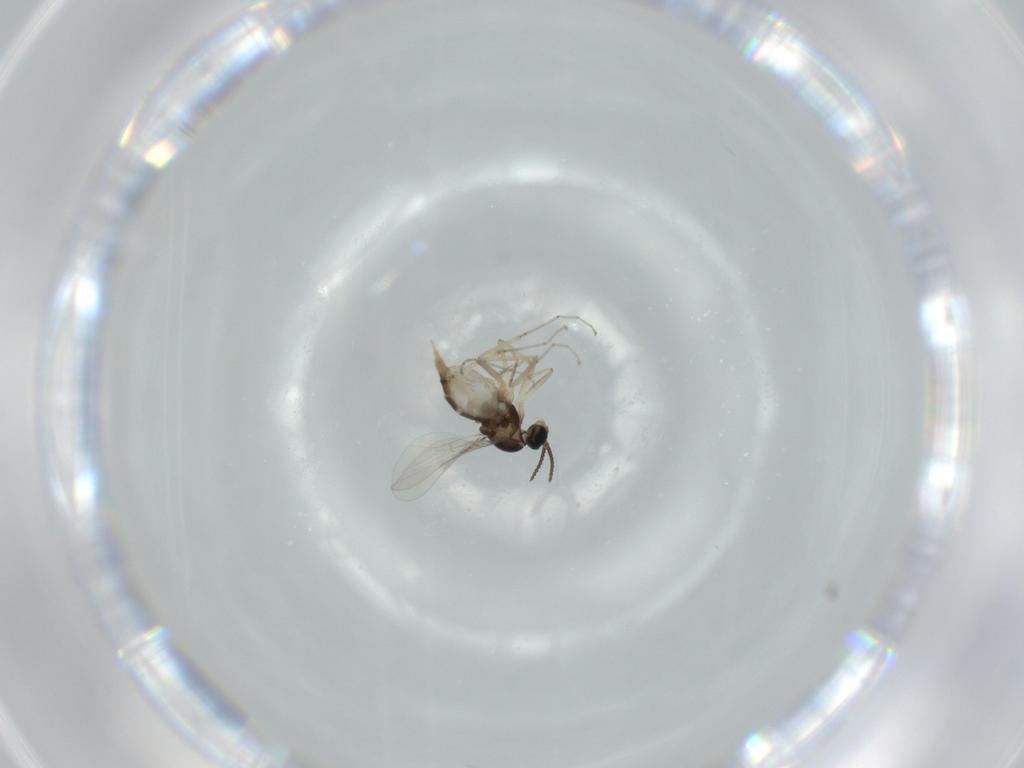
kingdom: Animalia
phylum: Arthropoda
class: Insecta
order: Diptera
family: Cecidomyiidae
